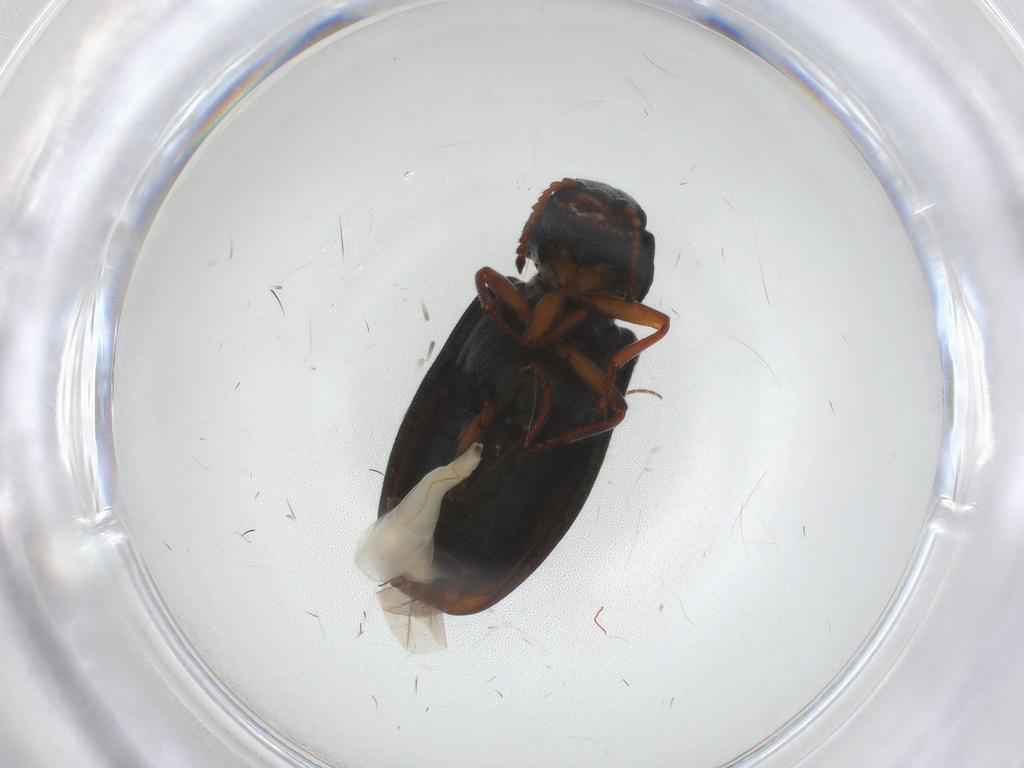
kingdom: Animalia
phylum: Arthropoda
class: Insecta
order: Coleoptera
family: Melyridae
